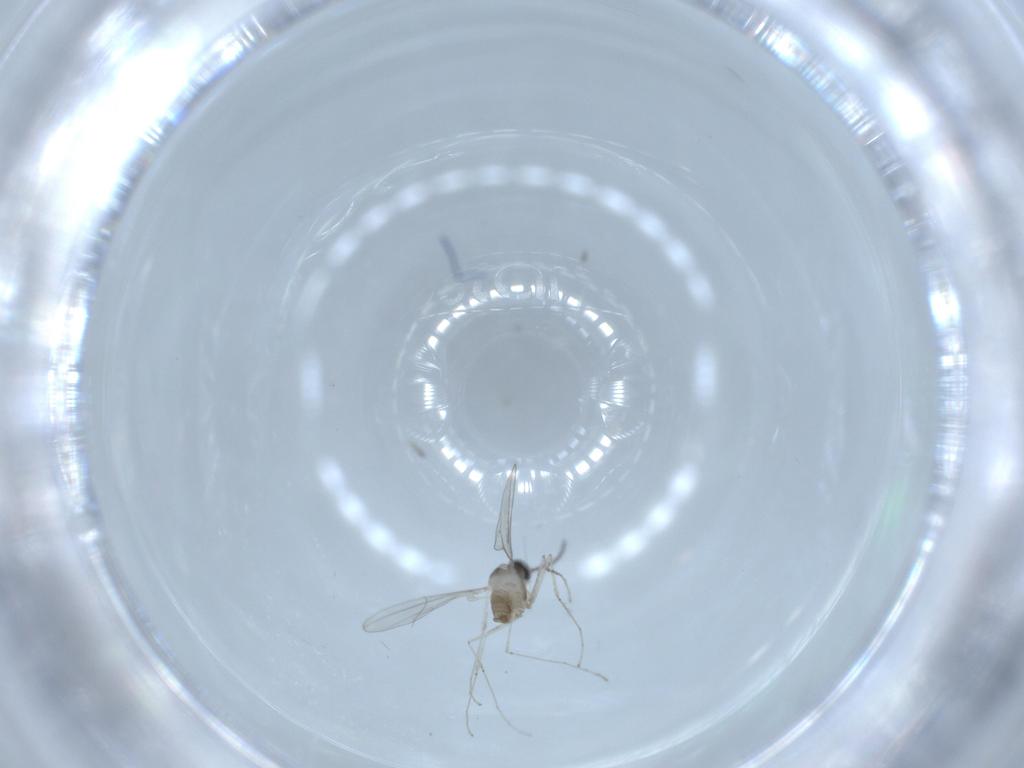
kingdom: Animalia
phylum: Arthropoda
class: Insecta
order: Diptera
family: Cecidomyiidae
